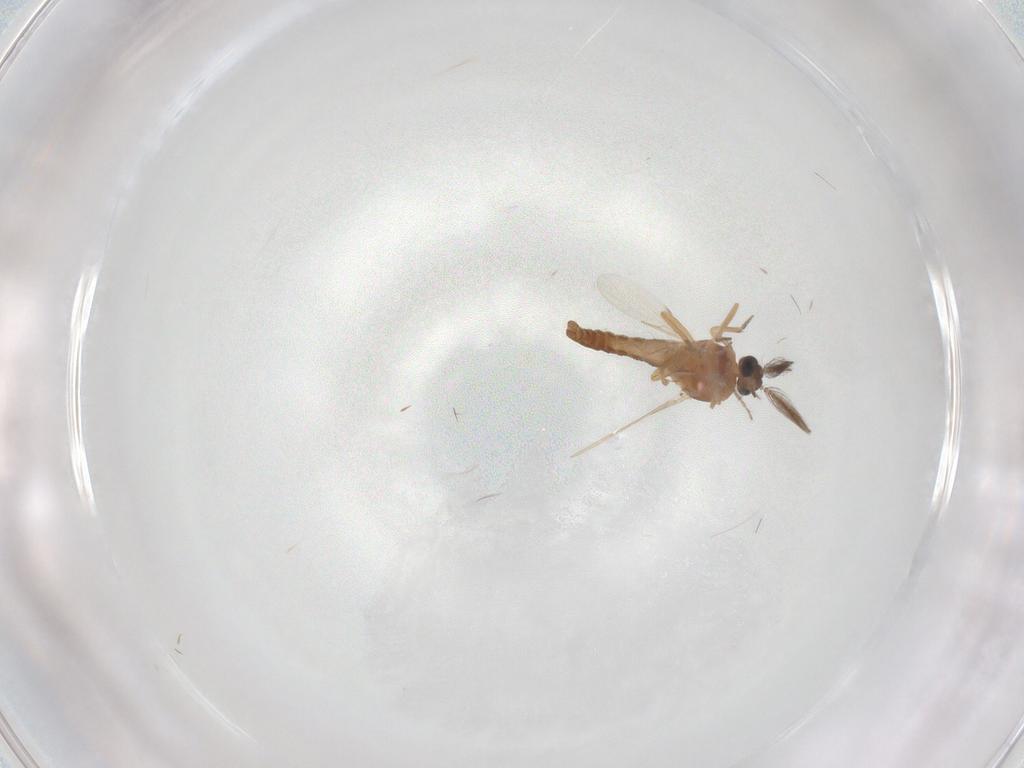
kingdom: Animalia
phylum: Arthropoda
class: Insecta
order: Diptera
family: Ceratopogonidae
